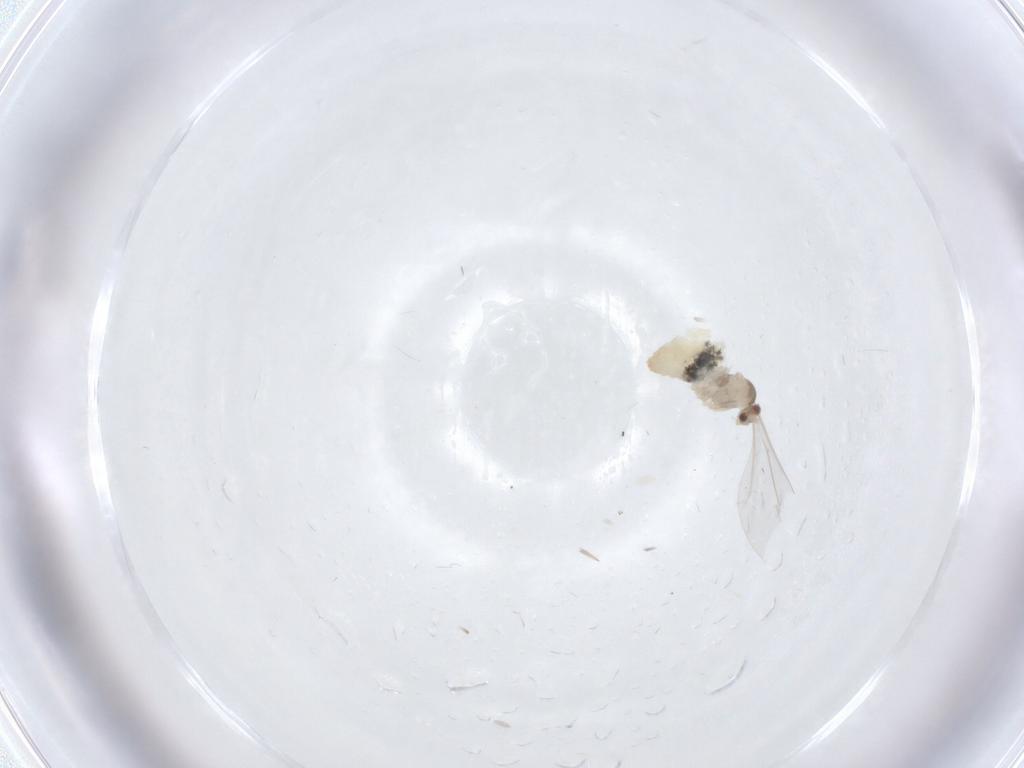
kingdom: Animalia
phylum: Arthropoda
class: Insecta
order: Diptera
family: Cecidomyiidae
